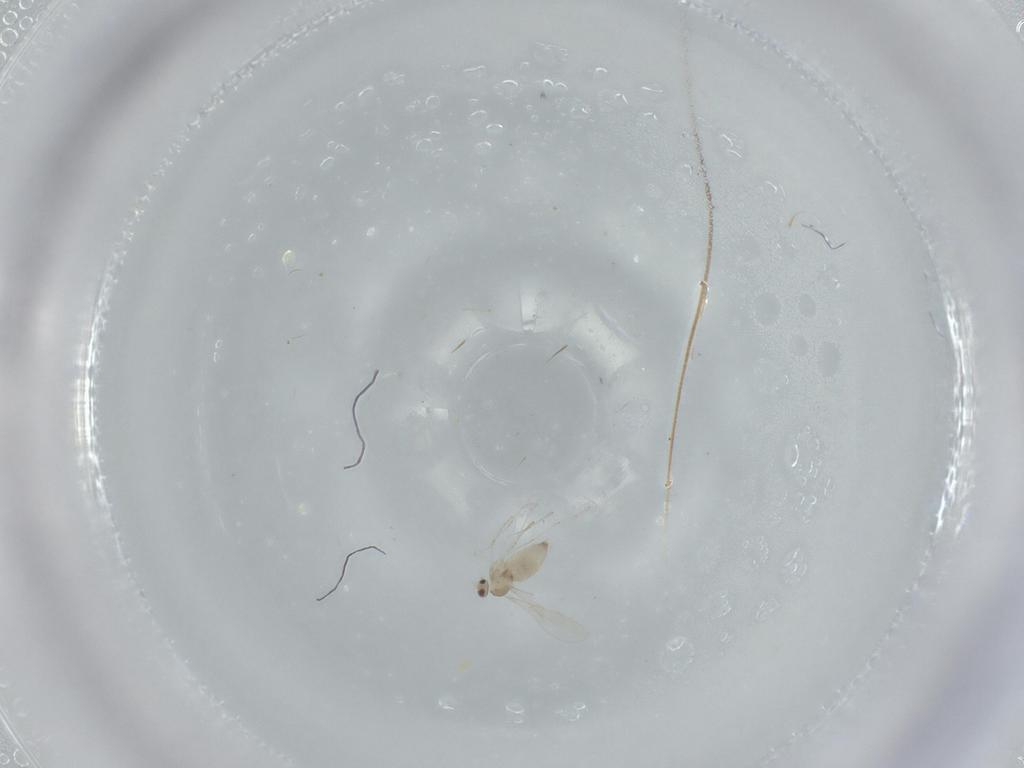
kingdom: Animalia
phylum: Arthropoda
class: Insecta
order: Diptera
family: Cecidomyiidae
